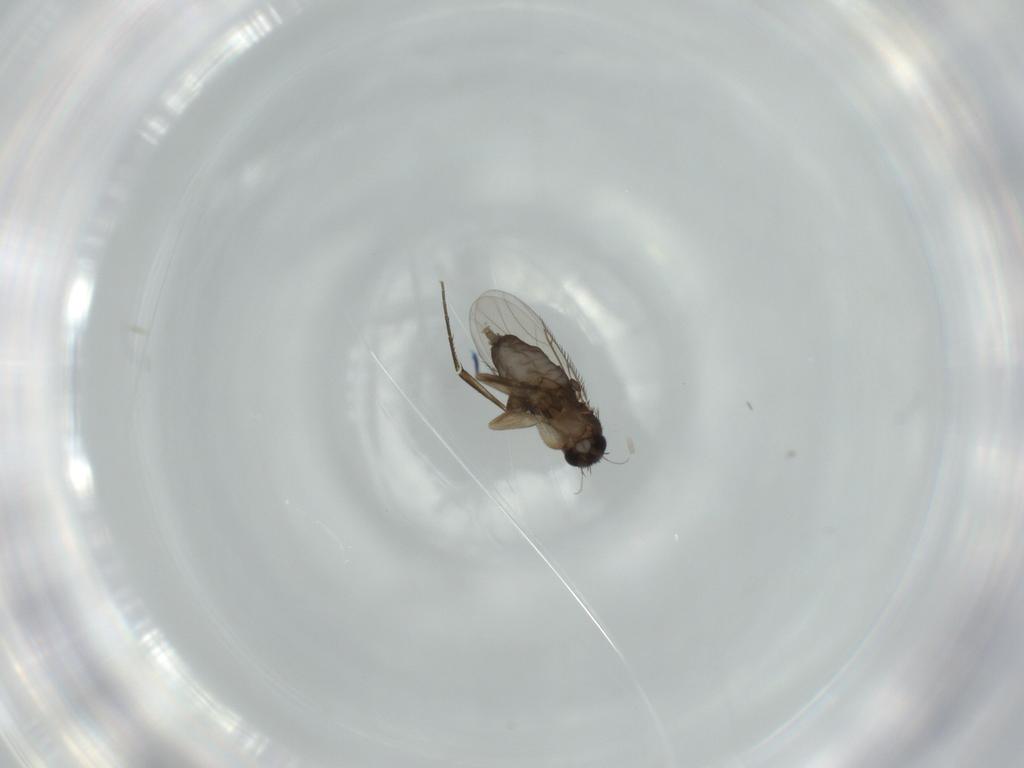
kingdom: Animalia
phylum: Arthropoda
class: Insecta
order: Diptera
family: Phoridae
